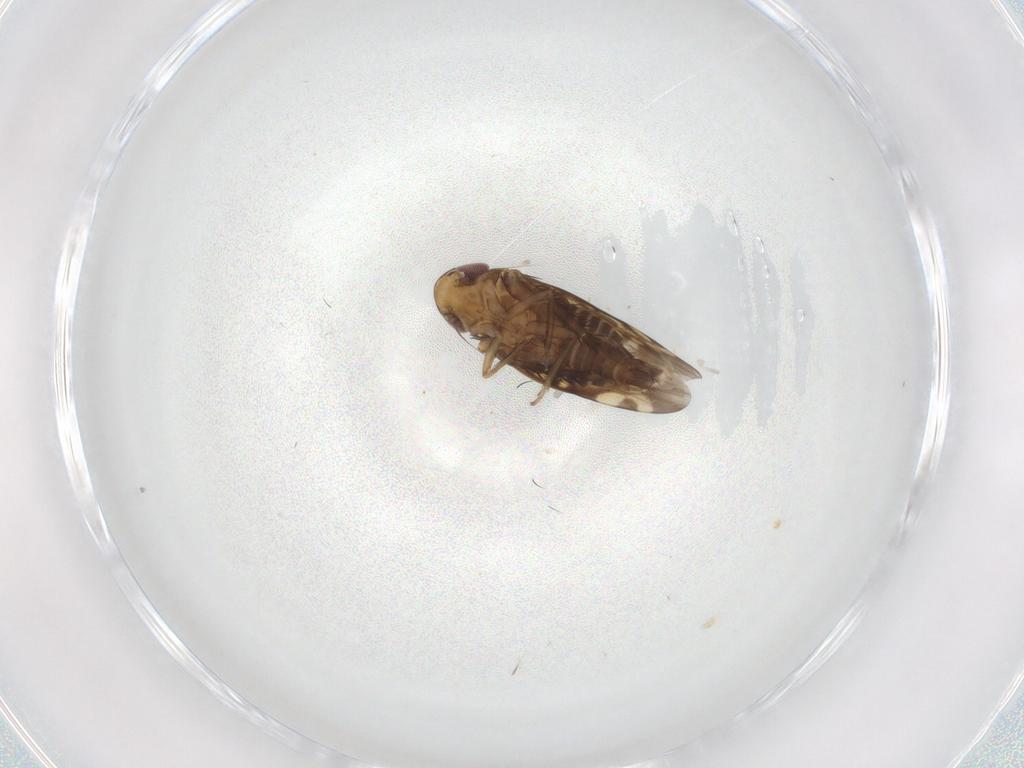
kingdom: Animalia
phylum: Arthropoda
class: Insecta
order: Hemiptera
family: Cicadellidae
